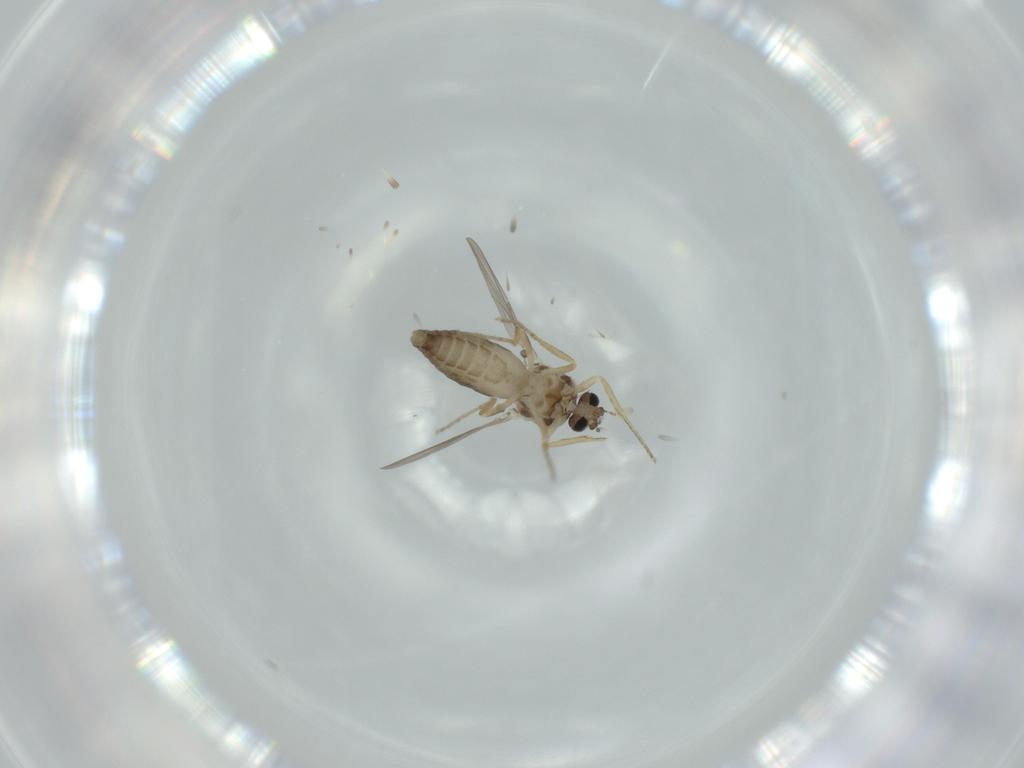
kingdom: Animalia
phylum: Arthropoda
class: Insecta
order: Diptera
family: Ceratopogonidae
